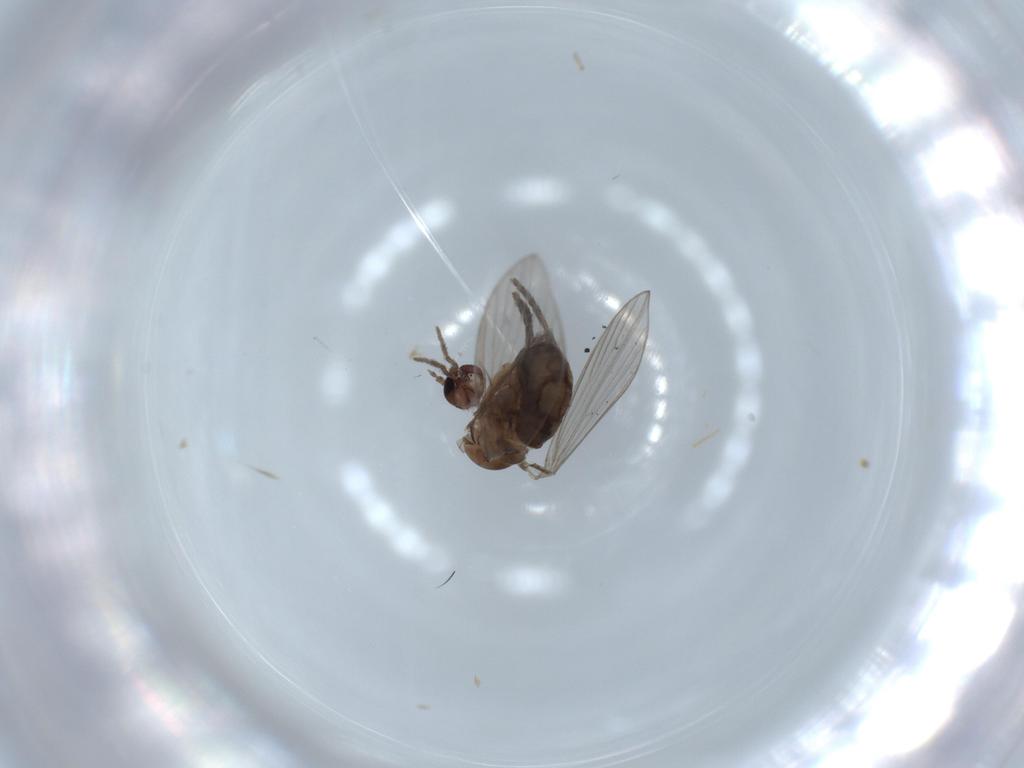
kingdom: Animalia
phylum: Arthropoda
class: Insecta
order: Diptera
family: Psychodidae
